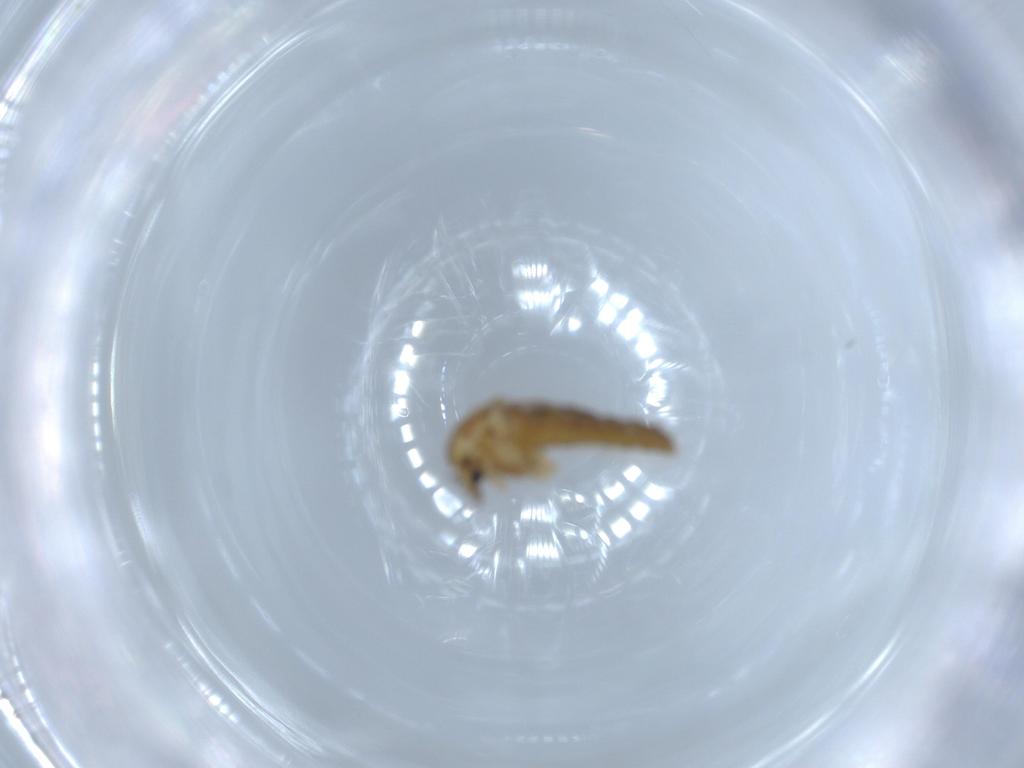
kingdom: Animalia
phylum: Arthropoda
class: Insecta
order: Diptera
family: Chironomidae
